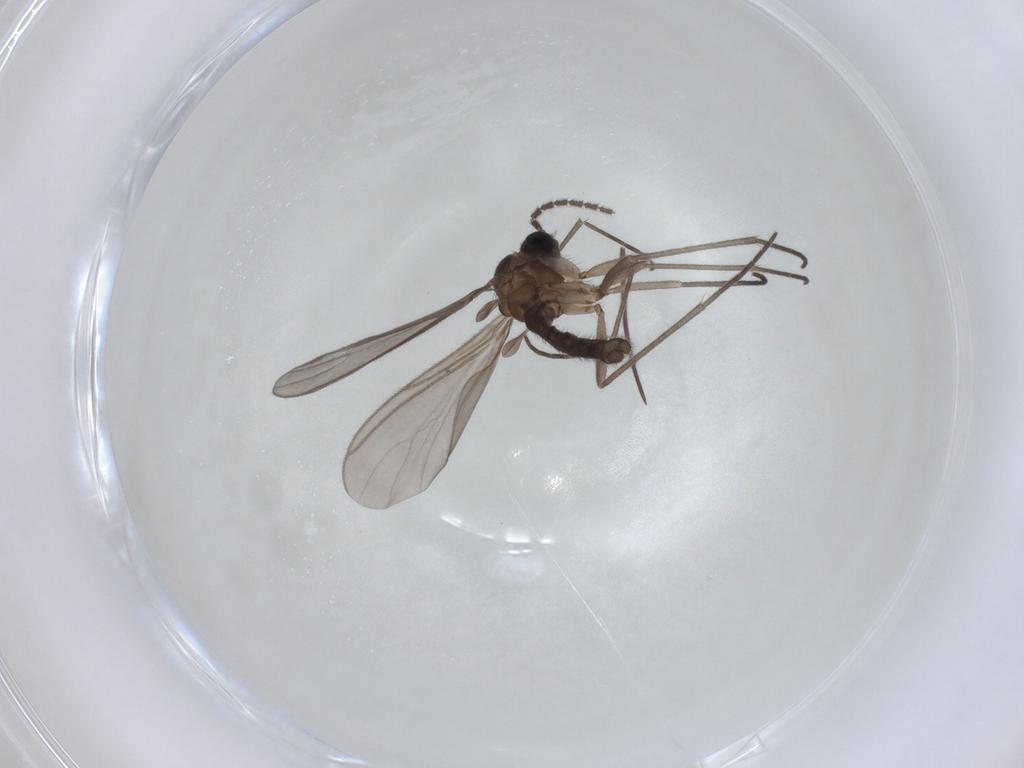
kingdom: Animalia
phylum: Arthropoda
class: Insecta
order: Diptera
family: Sciaridae
